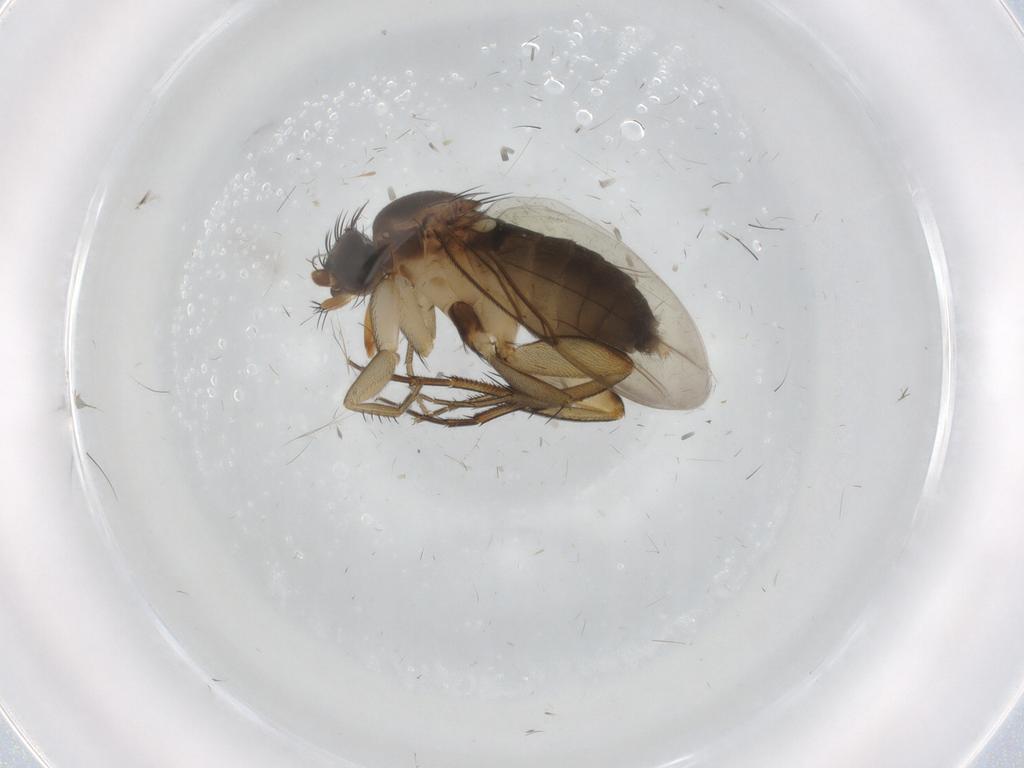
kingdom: Animalia
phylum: Arthropoda
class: Insecta
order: Diptera
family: Phoridae
